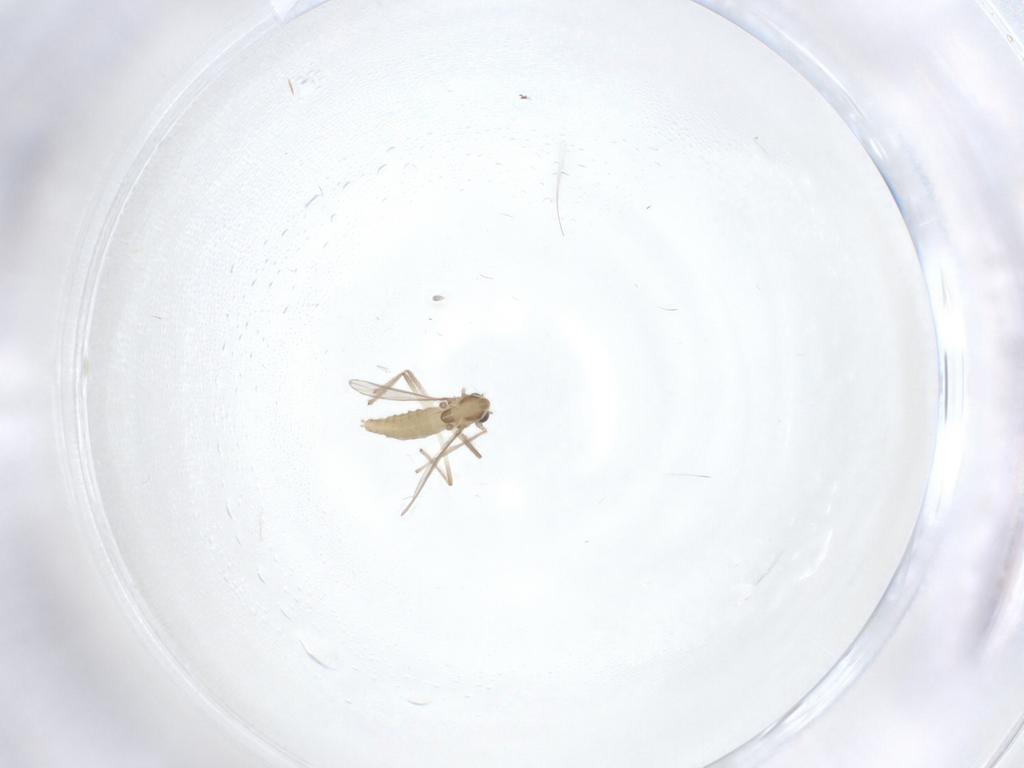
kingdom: Animalia
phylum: Arthropoda
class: Insecta
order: Diptera
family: Chironomidae
